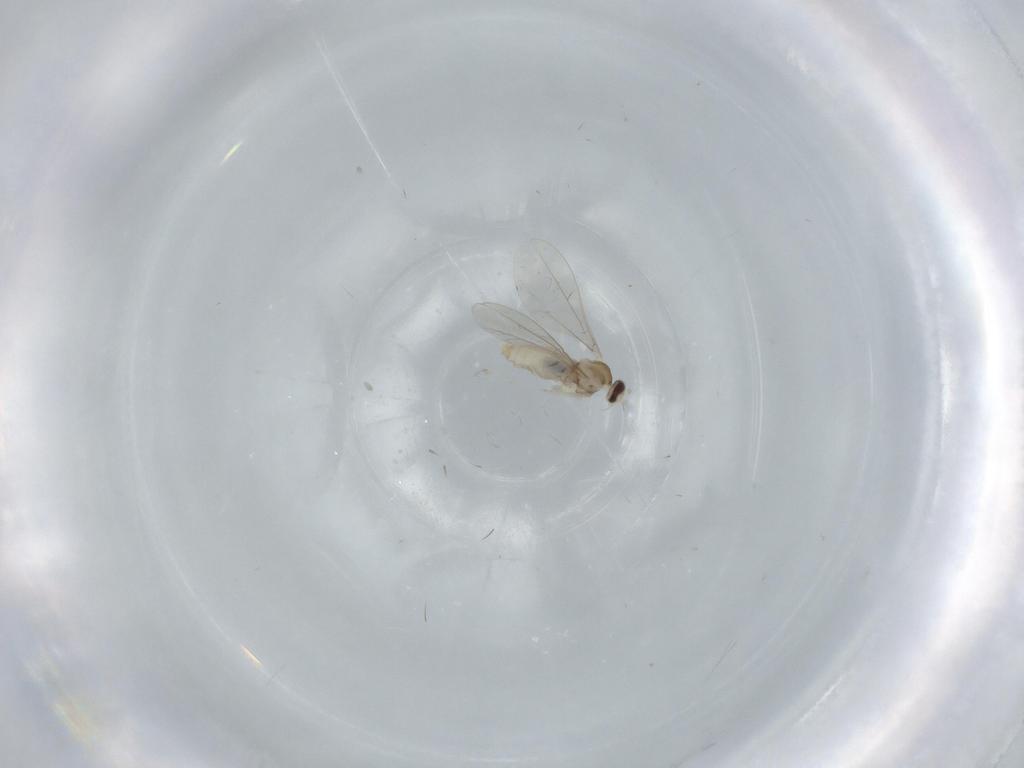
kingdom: Animalia
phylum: Arthropoda
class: Insecta
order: Diptera
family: Cecidomyiidae
